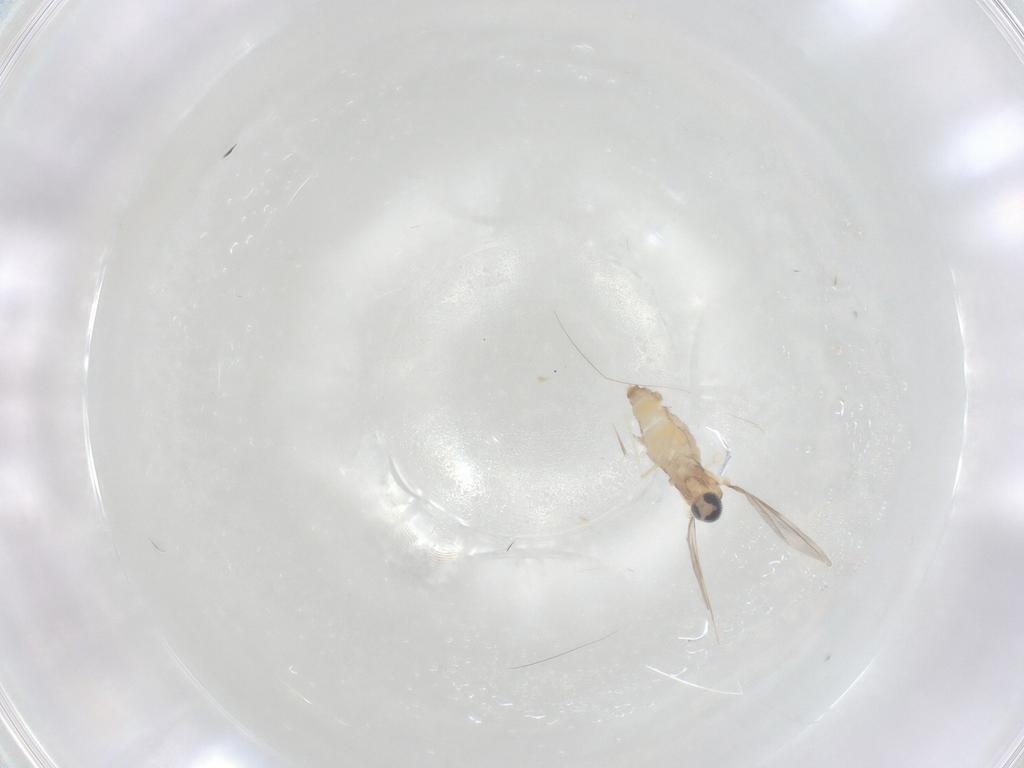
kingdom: Animalia
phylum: Arthropoda
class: Insecta
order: Diptera
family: Cecidomyiidae
